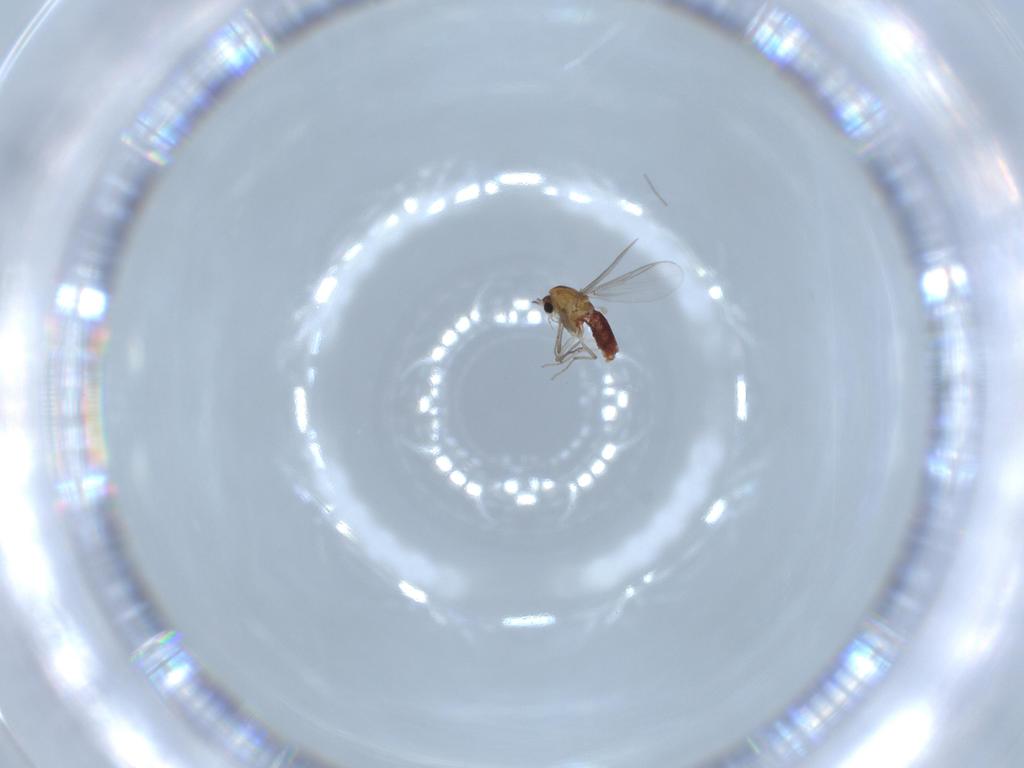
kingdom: Animalia
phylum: Arthropoda
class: Insecta
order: Diptera
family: Chironomidae
